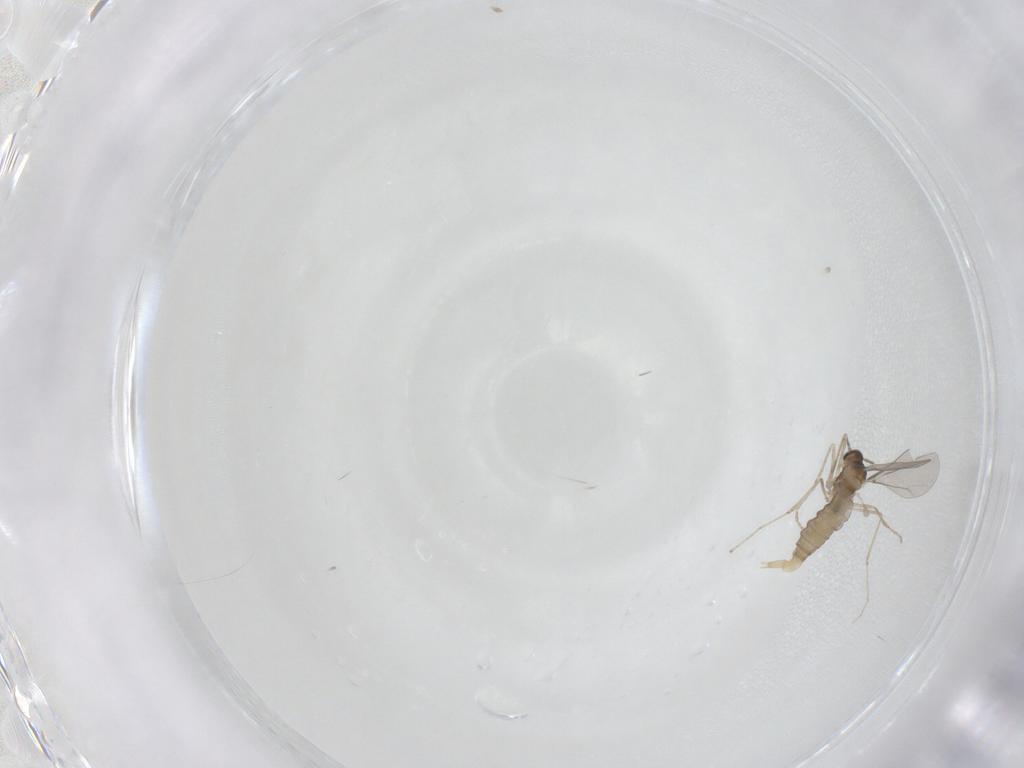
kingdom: Animalia
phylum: Arthropoda
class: Insecta
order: Diptera
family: Cecidomyiidae
